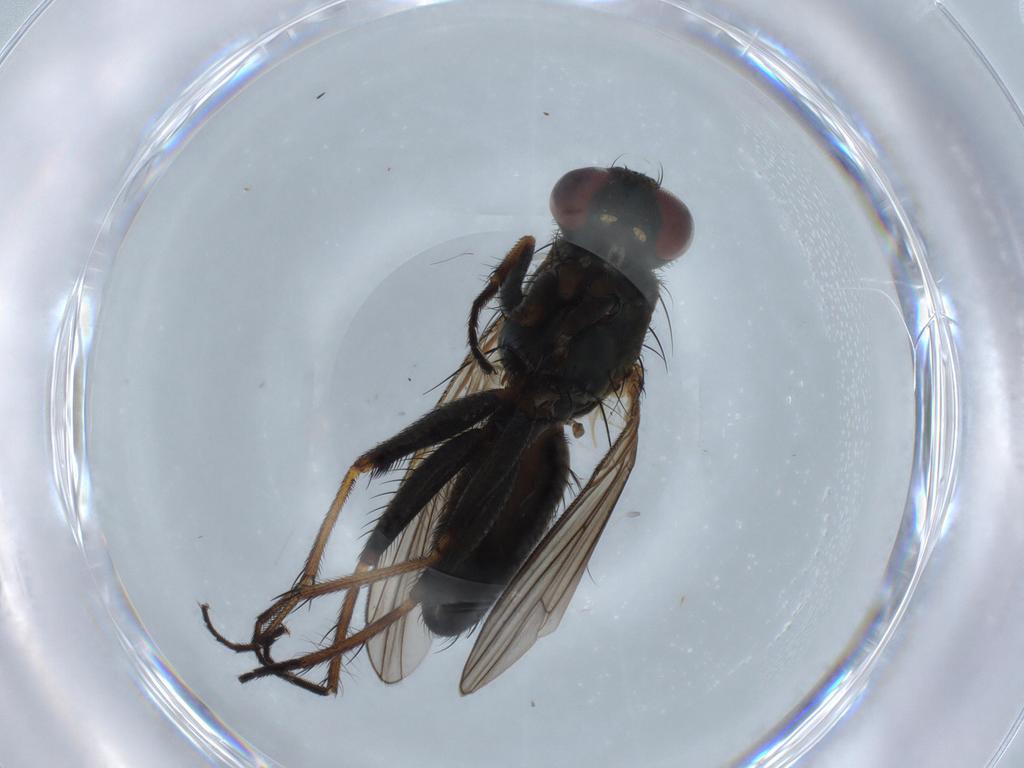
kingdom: Animalia
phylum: Arthropoda
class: Insecta
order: Diptera
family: Muscidae
